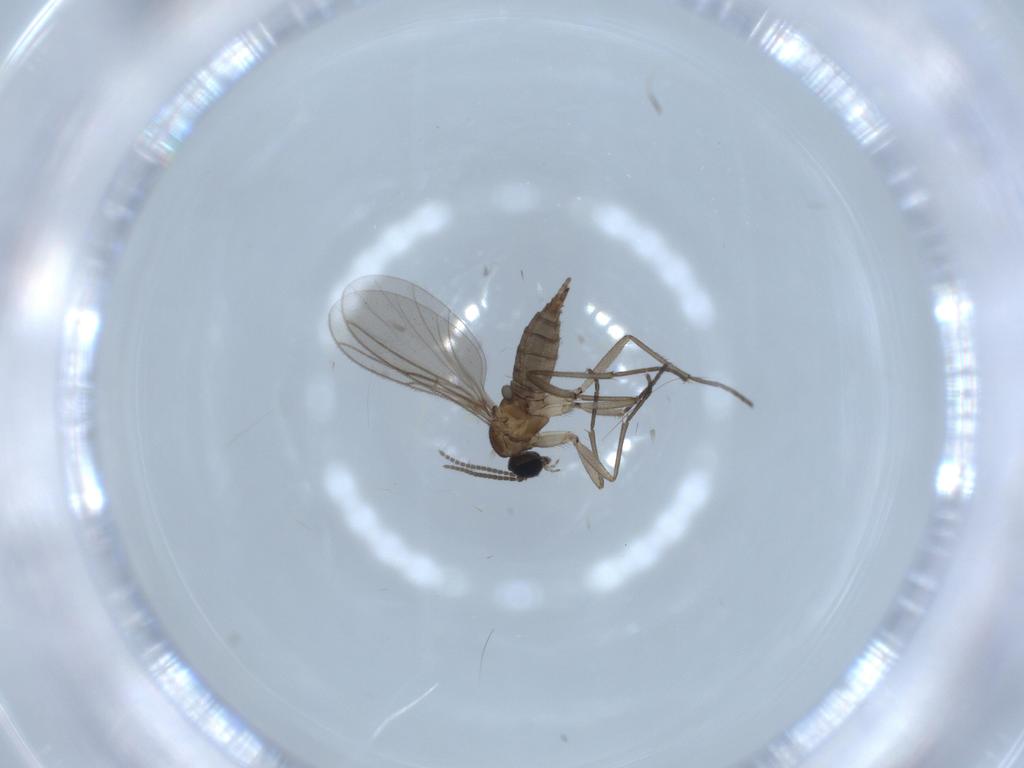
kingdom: Animalia
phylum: Arthropoda
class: Insecta
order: Diptera
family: Sciaridae
